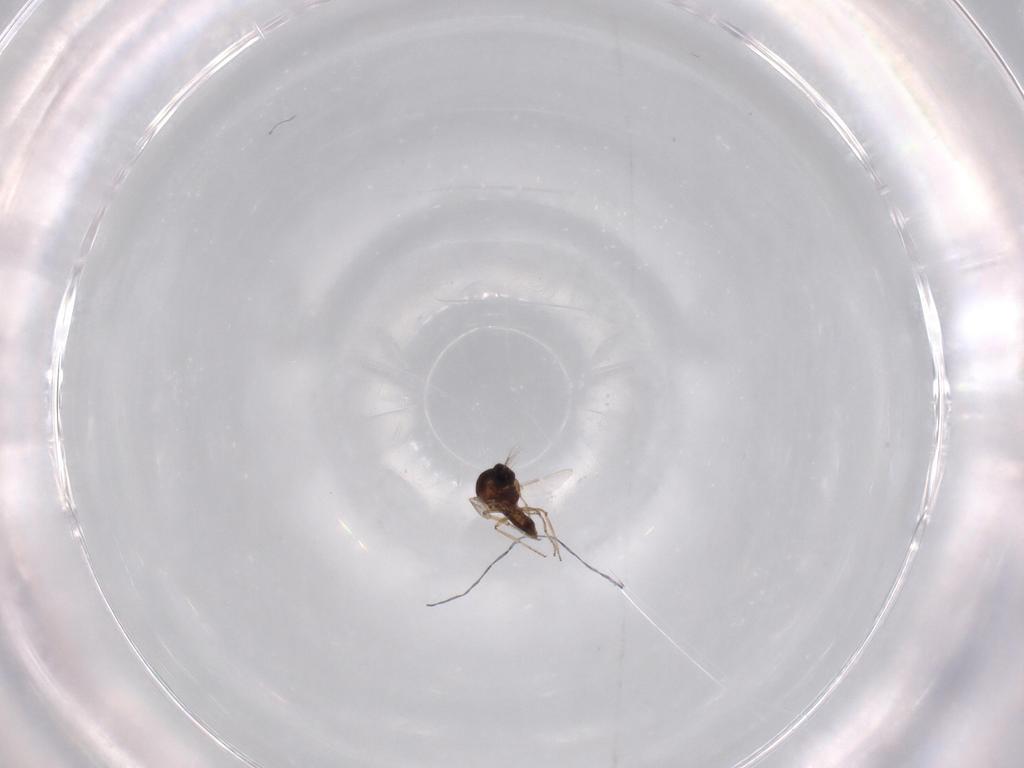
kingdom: Animalia
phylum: Arthropoda
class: Insecta
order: Diptera
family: Ceratopogonidae
